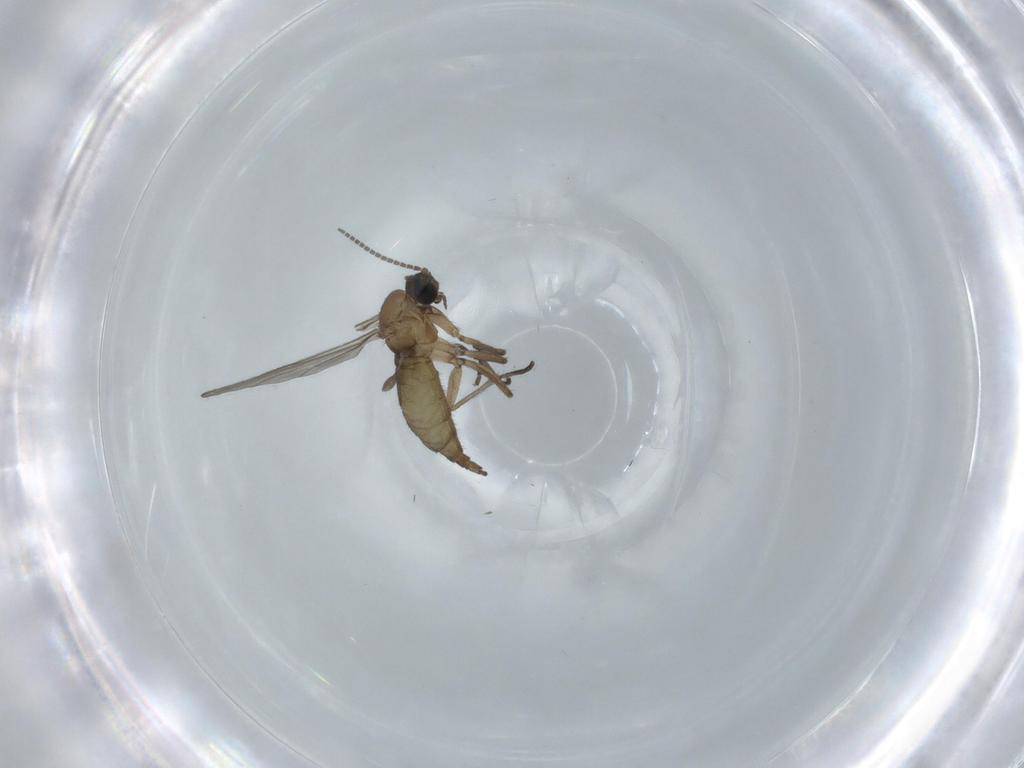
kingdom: Animalia
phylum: Arthropoda
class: Insecta
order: Diptera
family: Sciaridae
